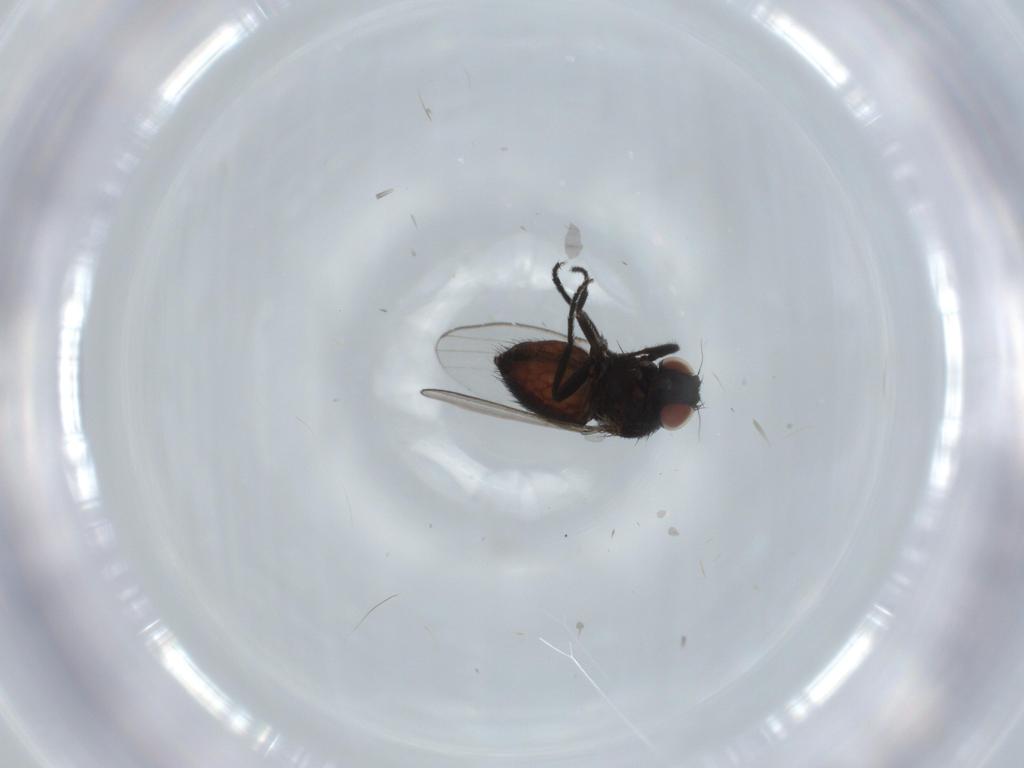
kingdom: Animalia
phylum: Arthropoda
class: Insecta
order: Diptera
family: Milichiidae
